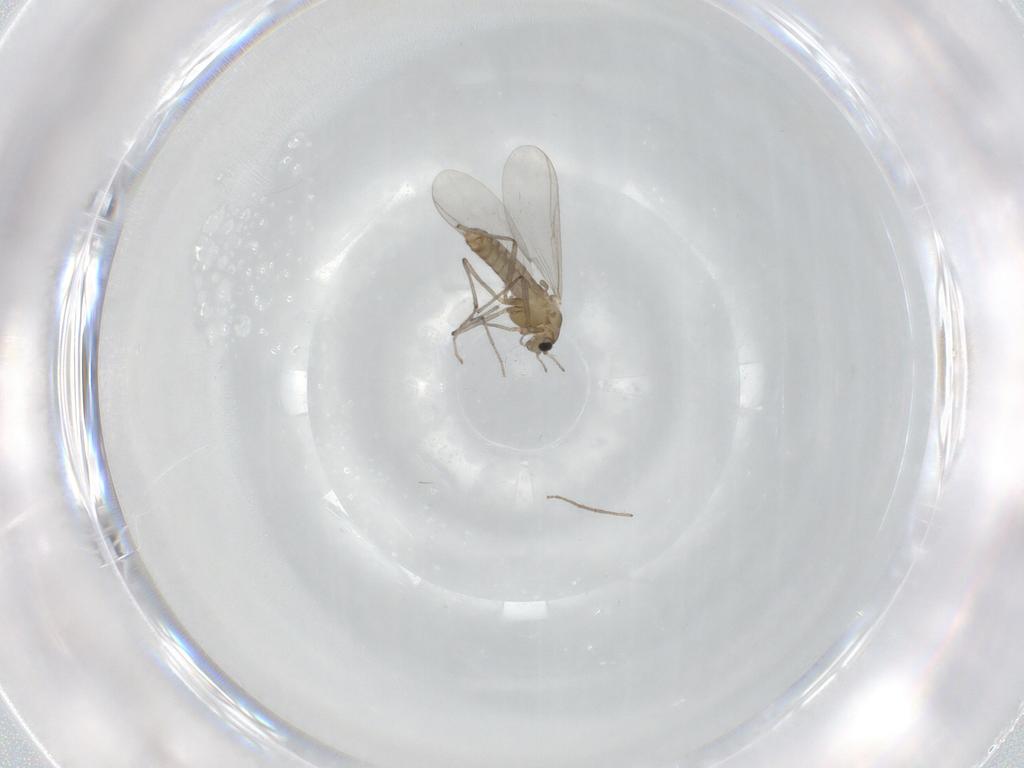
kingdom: Animalia
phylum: Arthropoda
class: Insecta
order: Diptera
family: Chironomidae
